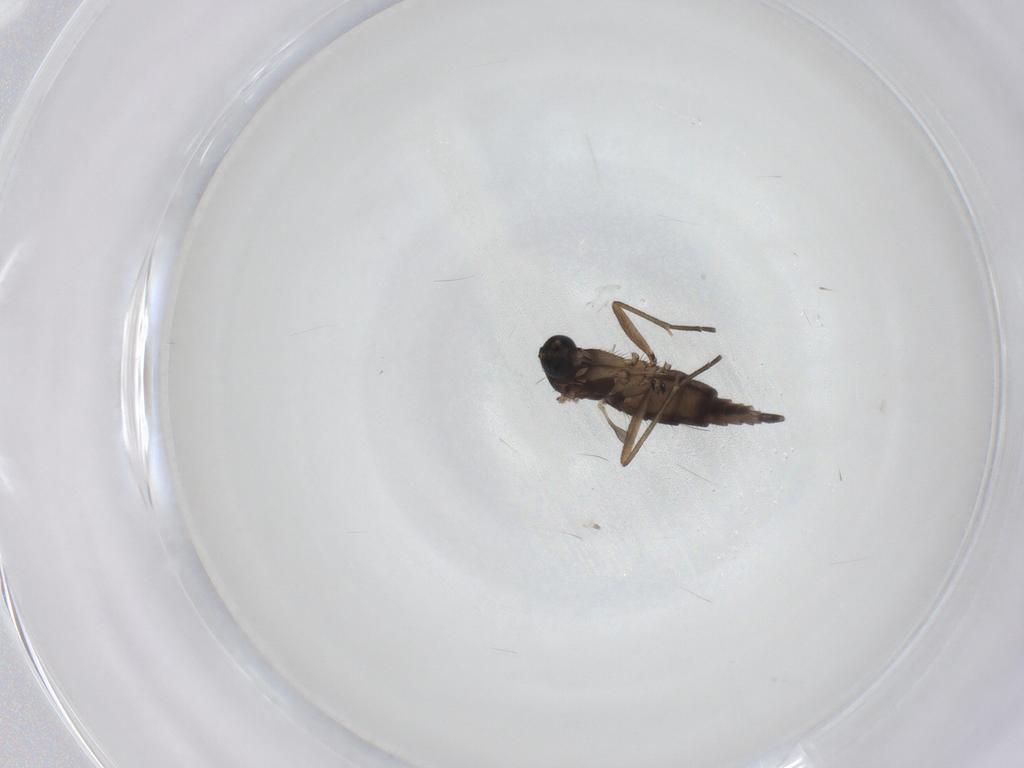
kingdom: Animalia
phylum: Arthropoda
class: Insecta
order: Diptera
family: Sciaridae
